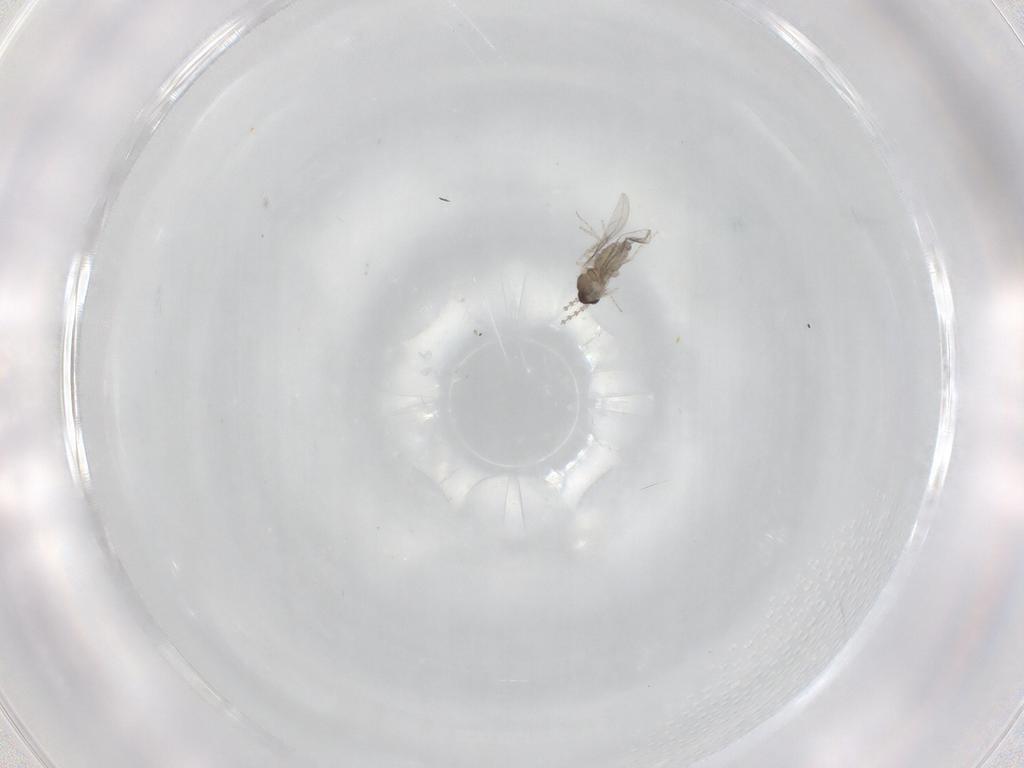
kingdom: Animalia
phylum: Arthropoda
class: Insecta
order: Diptera
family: Cecidomyiidae
